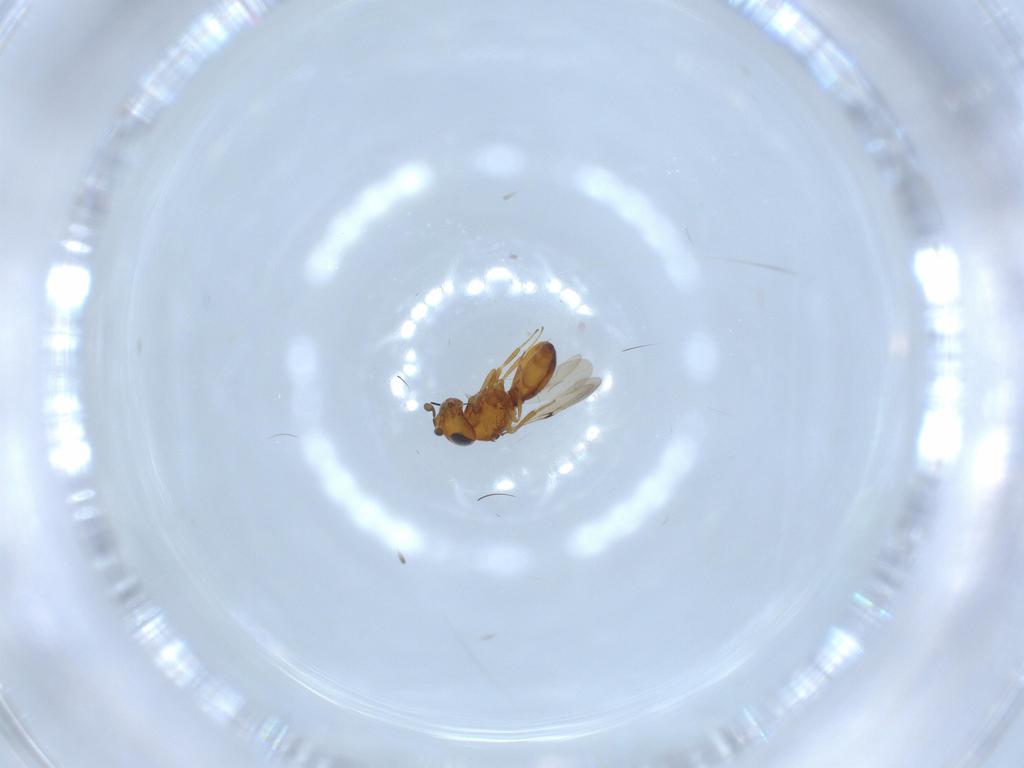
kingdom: Animalia
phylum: Arthropoda
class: Insecta
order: Hymenoptera
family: Scelionidae
